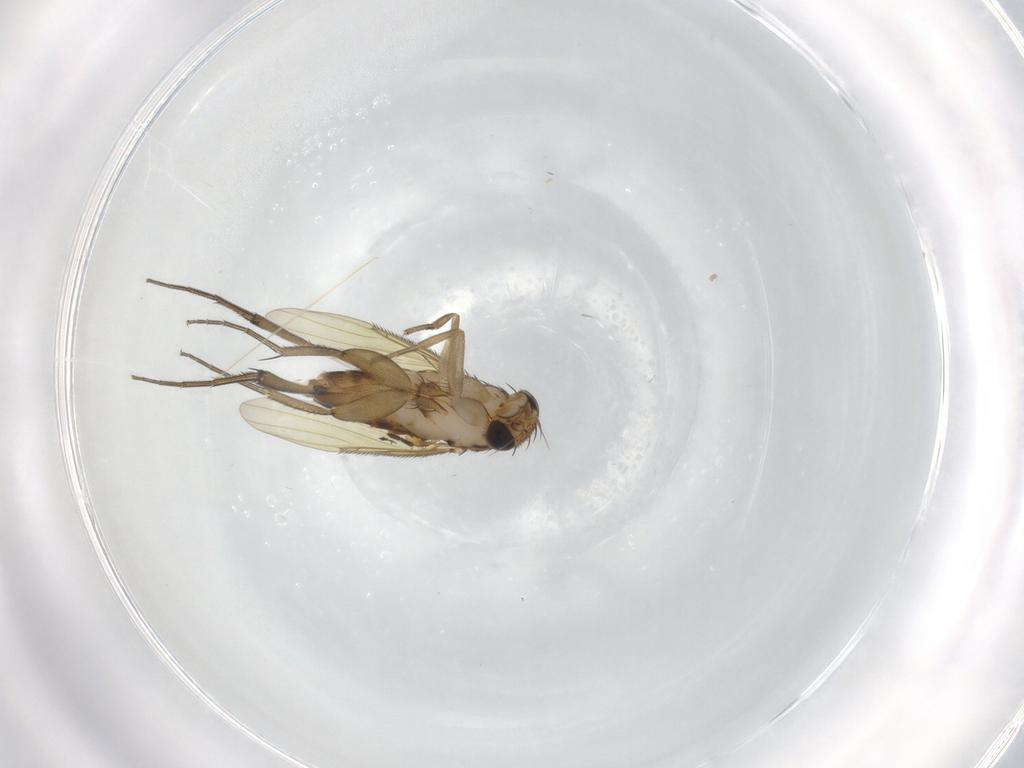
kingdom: Animalia
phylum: Arthropoda
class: Insecta
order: Diptera
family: Phoridae
